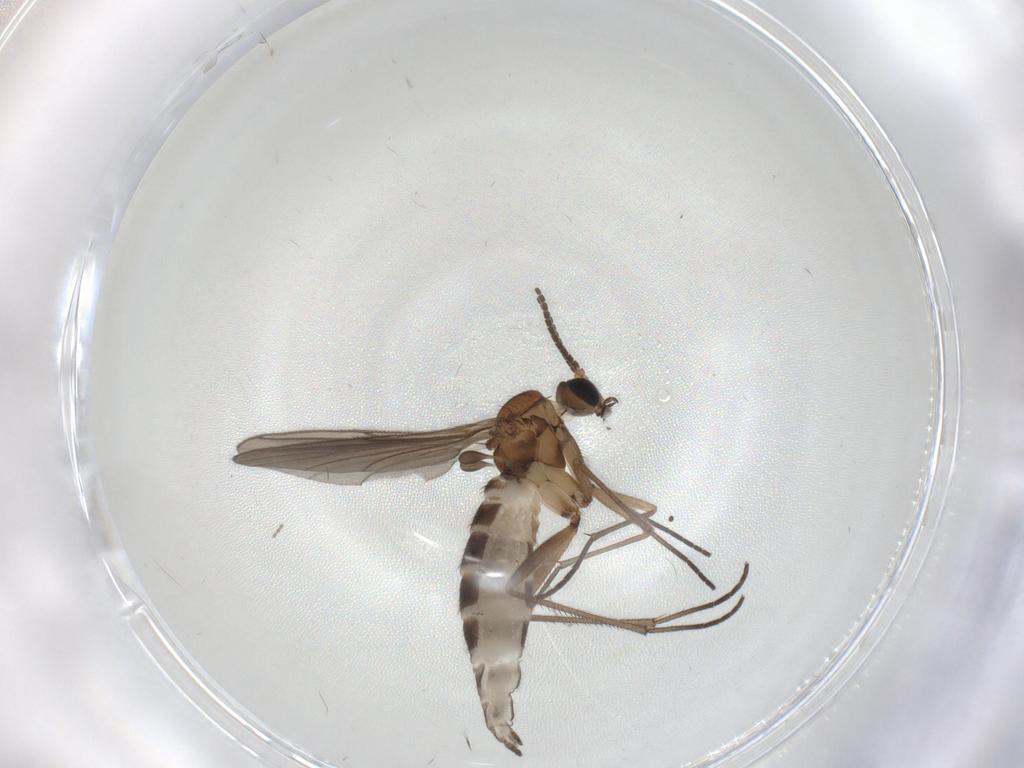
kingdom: Animalia
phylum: Arthropoda
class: Insecta
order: Diptera
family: Sciaridae
